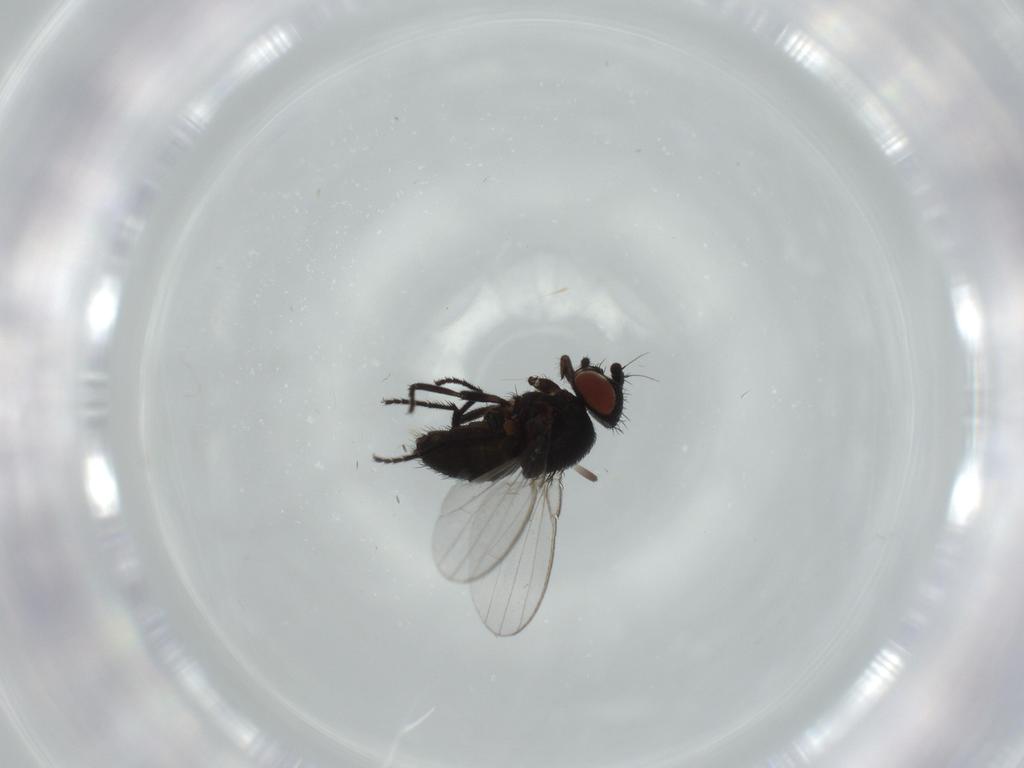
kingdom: Animalia
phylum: Arthropoda
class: Insecta
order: Diptera
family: Milichiidae
